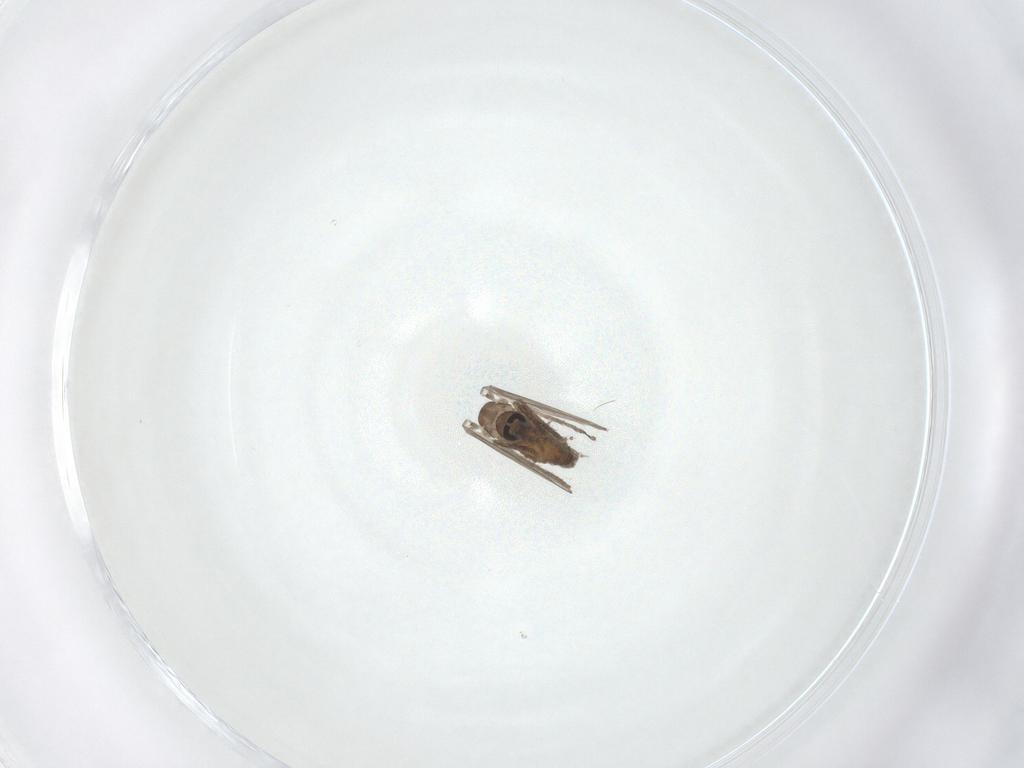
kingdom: Animalia
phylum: Arthropoda
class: Insecta
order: Diptera
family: Psychodidae
